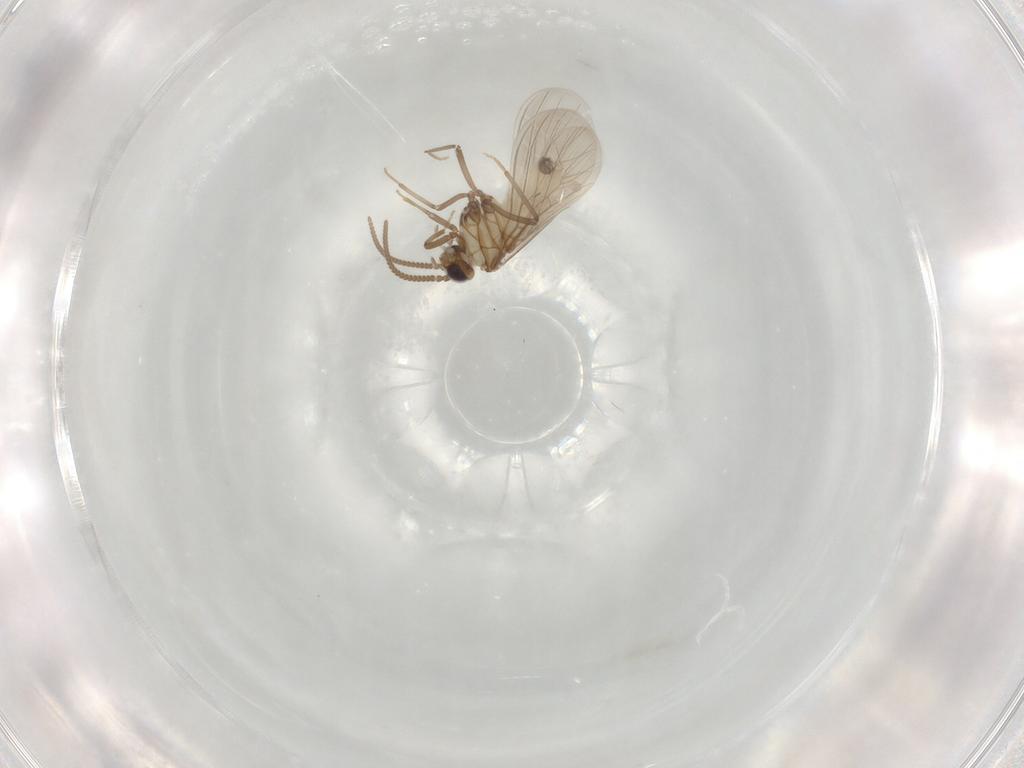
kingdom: Animalia
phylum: Arthropoda
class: Insecta
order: Neuroptera
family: Coniopterygidae
